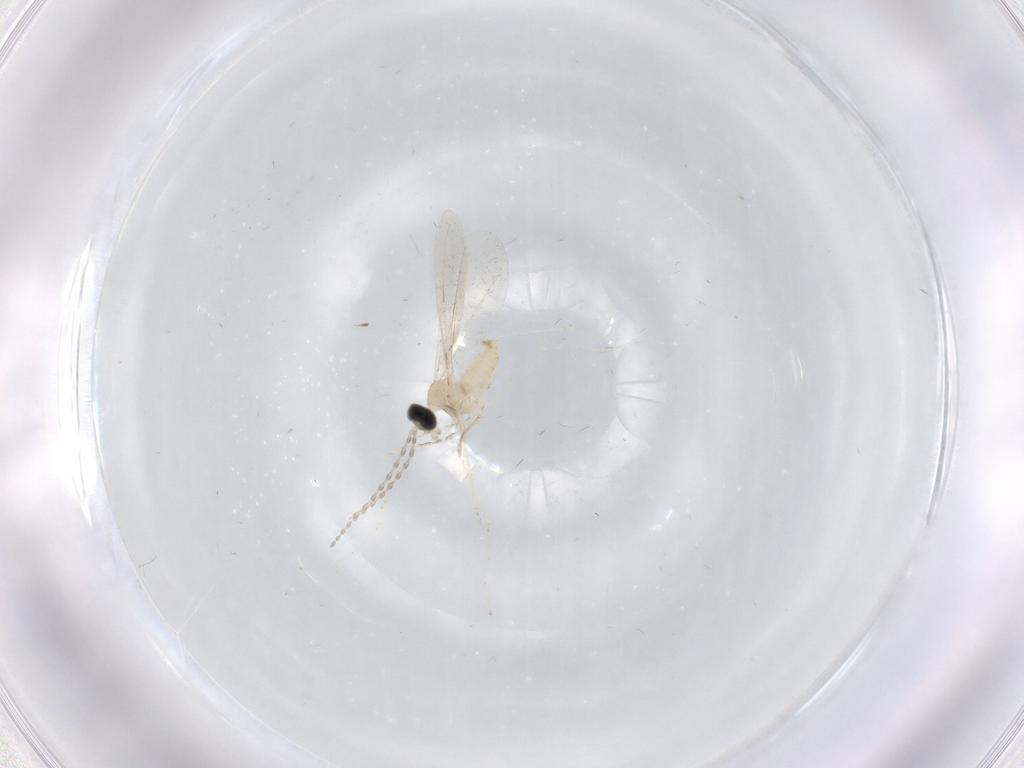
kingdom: Animalia
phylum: Arthropoda
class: Insecta
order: Diptera
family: Cecidomyiidae
